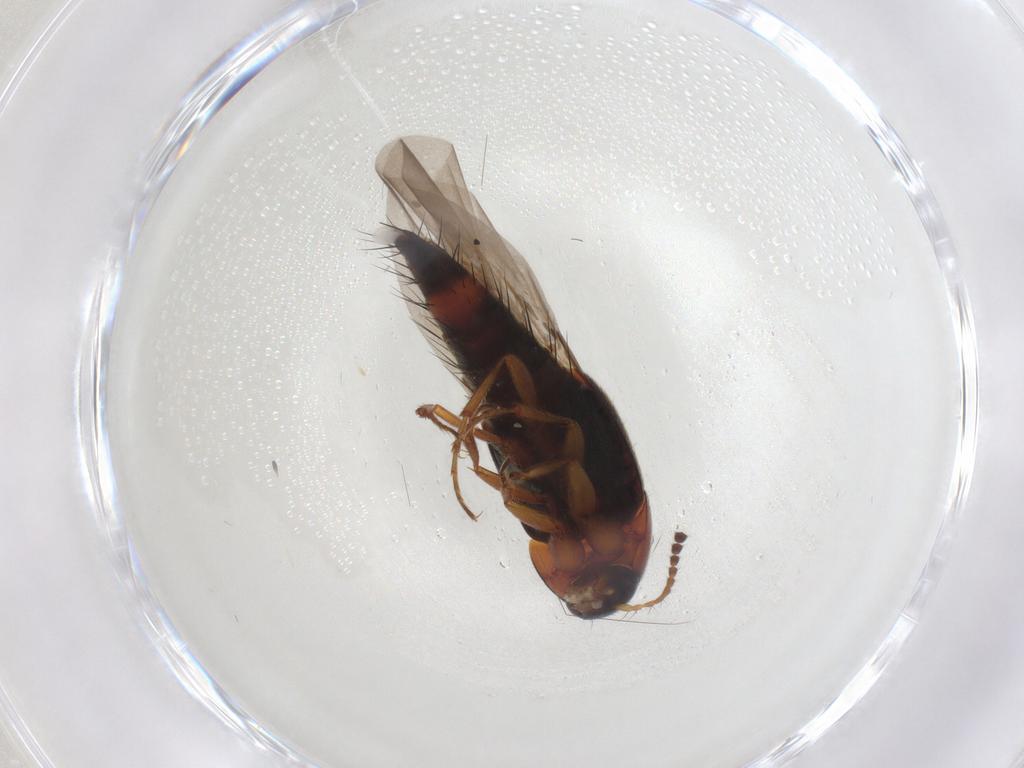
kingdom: Animalia
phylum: Arthropoda
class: Insecta
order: Coleoptera
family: Staphylinidae
